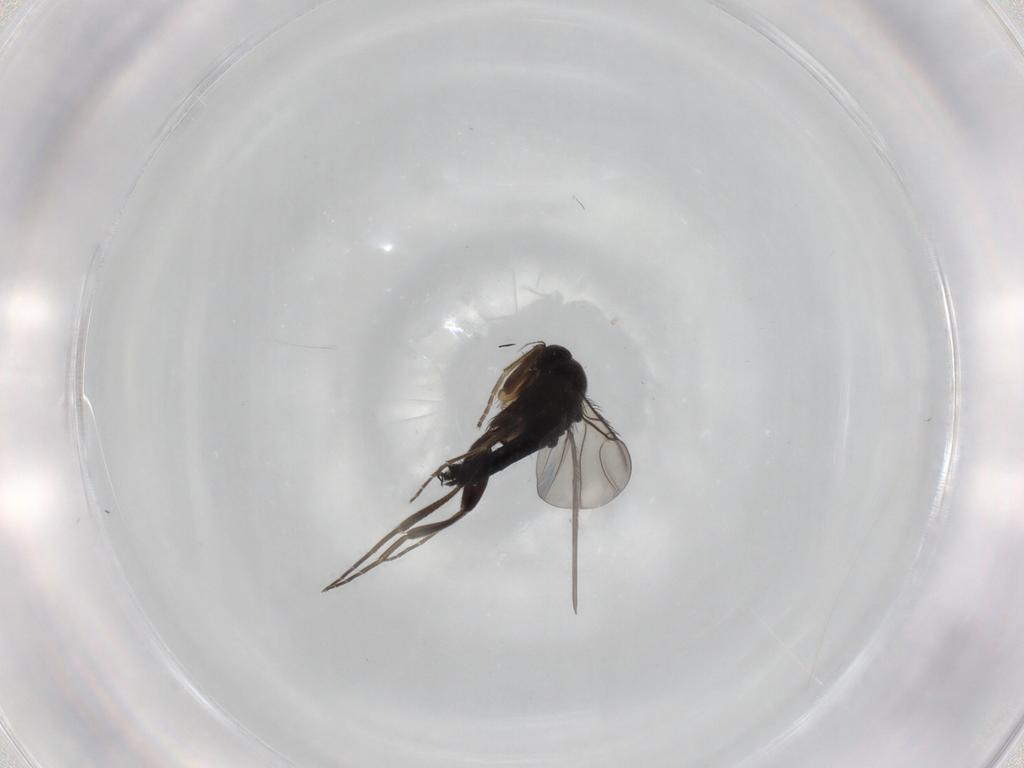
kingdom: Animalia
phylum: Arthropoda
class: Insecta
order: Diptera
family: Phoridae
